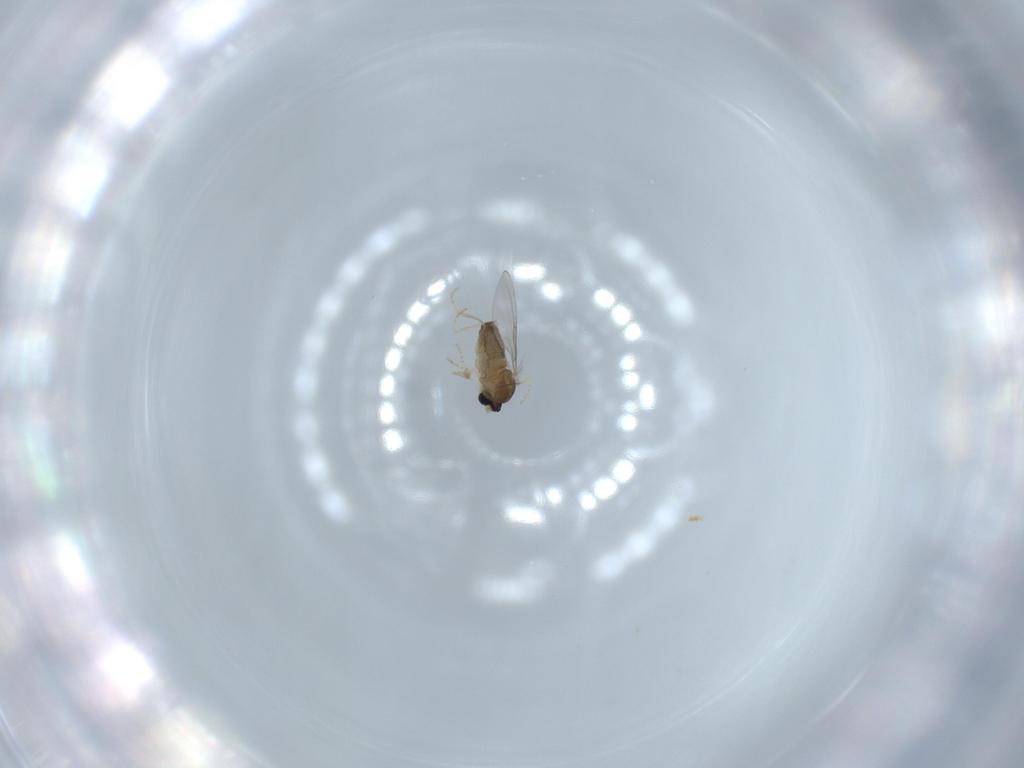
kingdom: Animalia
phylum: Arthropoda
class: Insecta
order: Diptera
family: Cecidomyiidae
